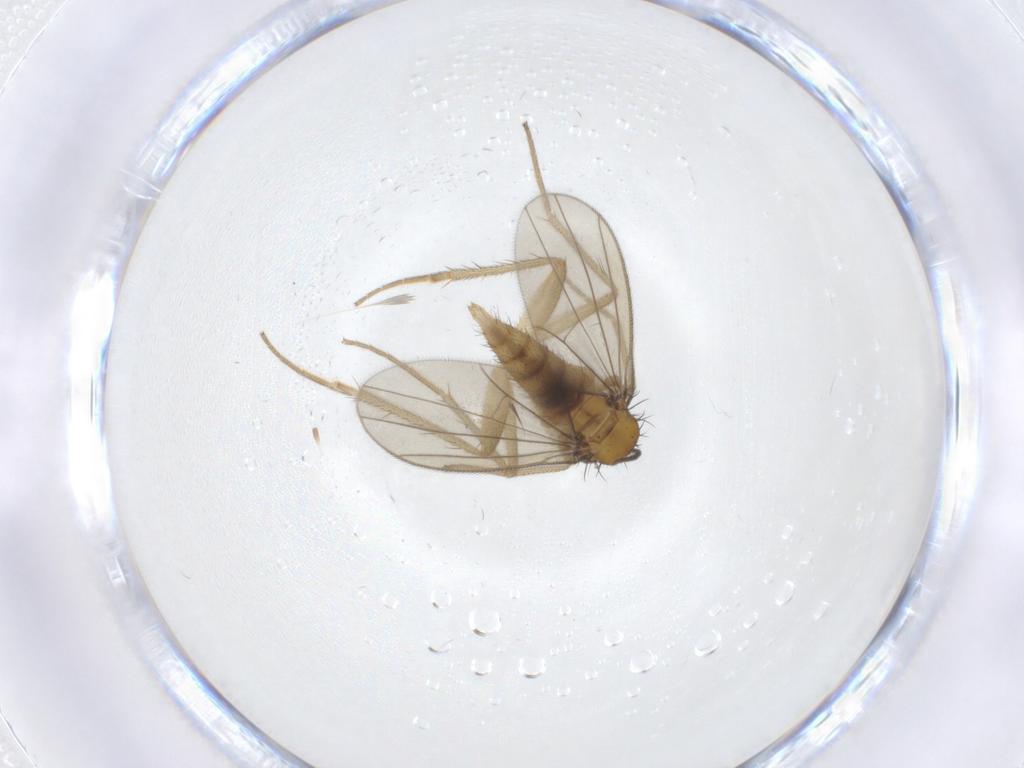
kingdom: Animalia
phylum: Arthropoda
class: Insecta
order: Diptera
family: Dolichopodidae
